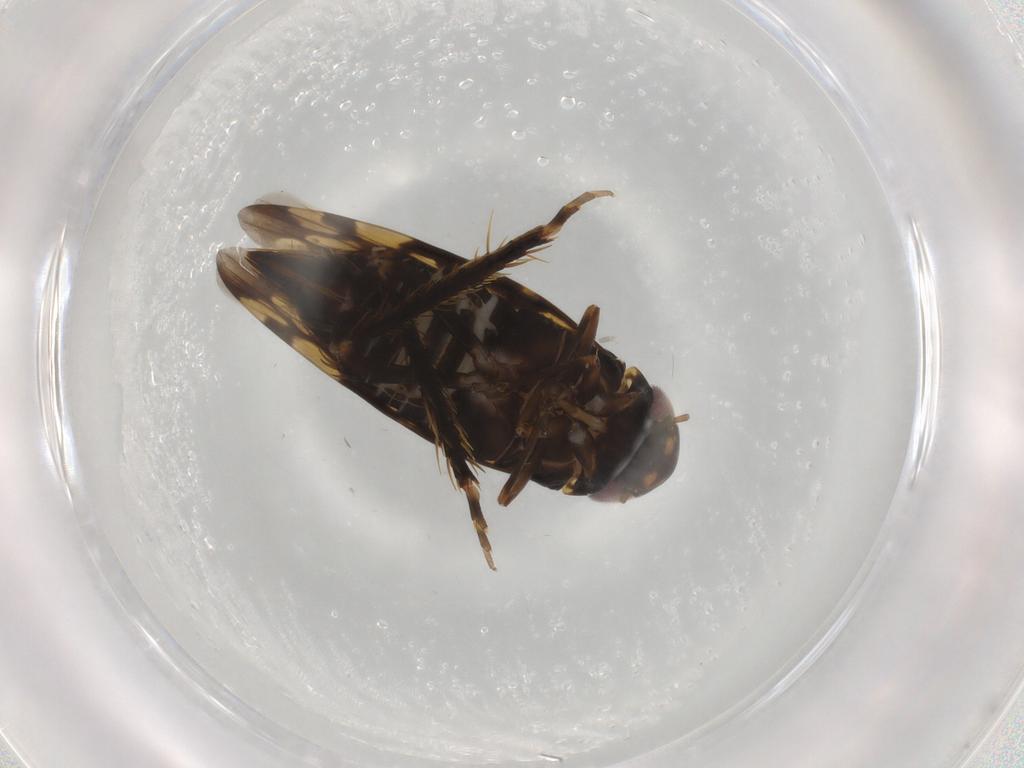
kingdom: Animalia
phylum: Arthropoda
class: Insecta
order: Hemiptera
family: Cicadellidae
